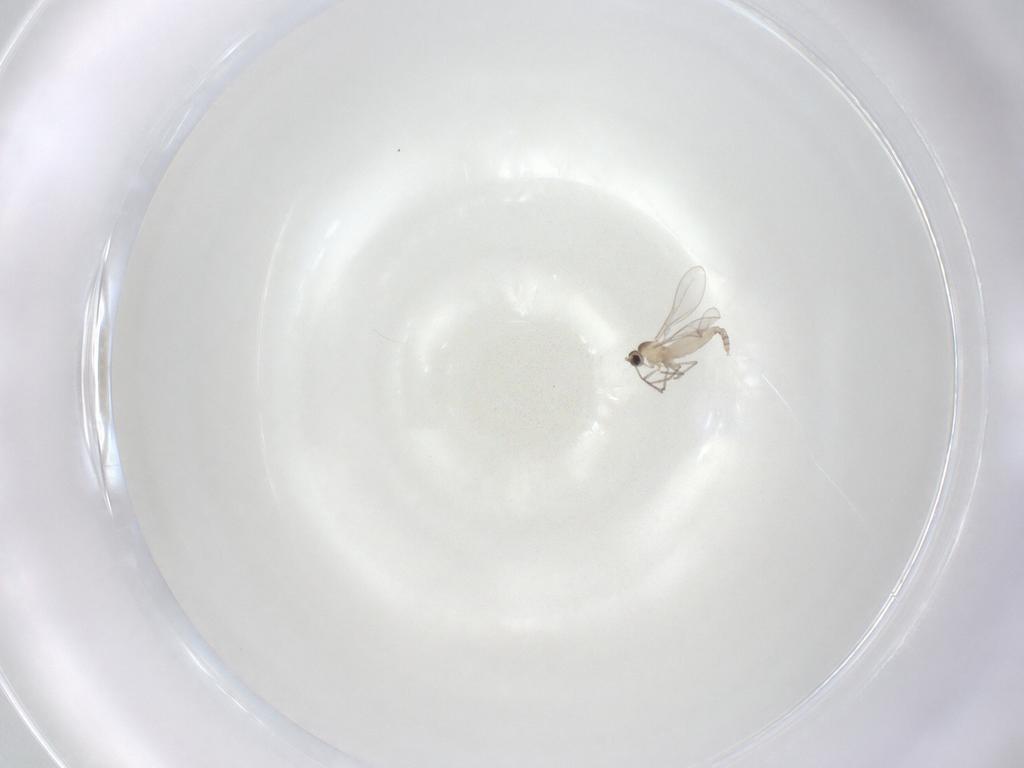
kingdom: Animalia
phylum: Arthropoda
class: Insecta
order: Diptera
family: Cecidomyiidae
